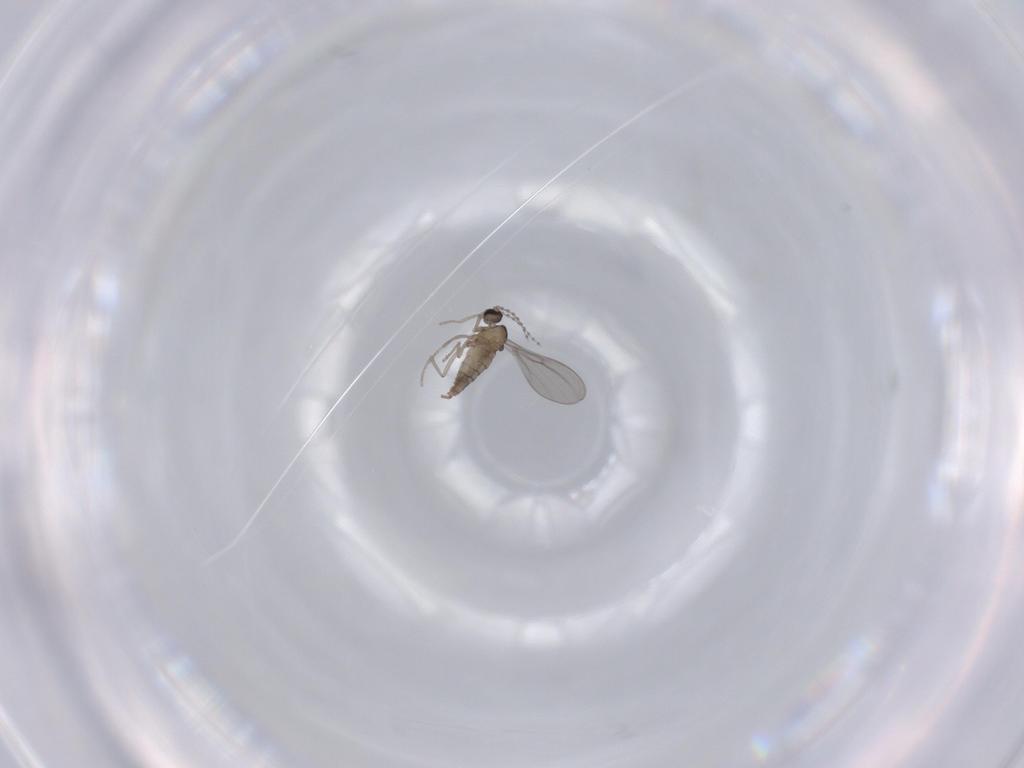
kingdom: Animalia
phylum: Arthropoda
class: Insecta
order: Diptera
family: Cecidomyiidae
